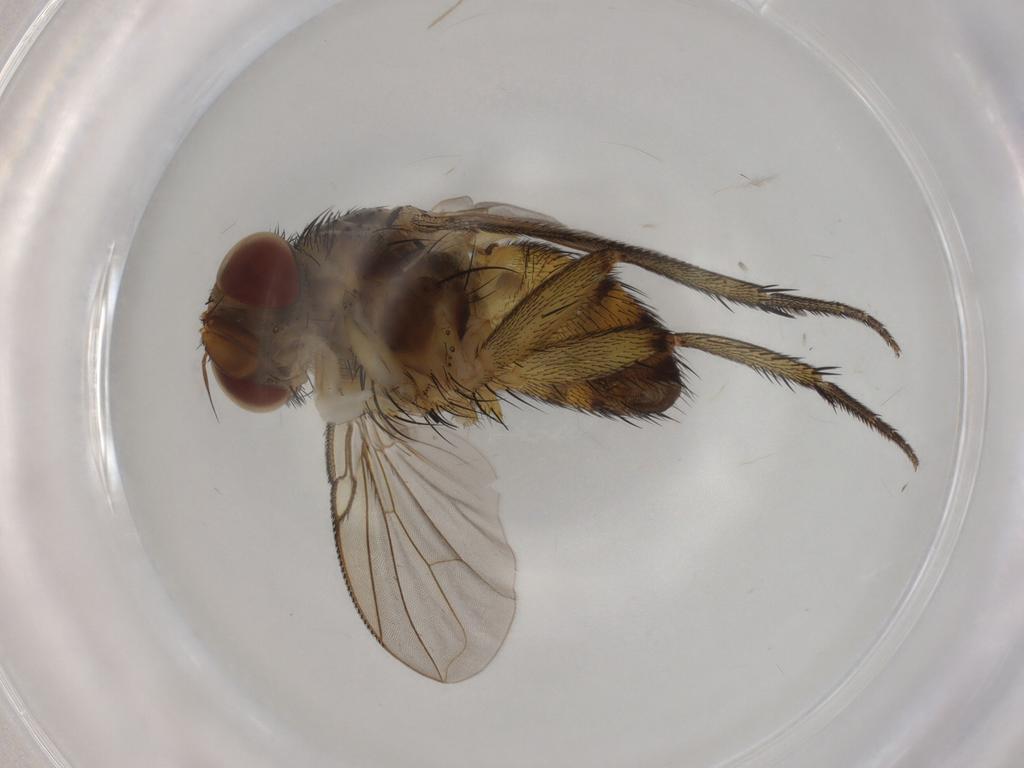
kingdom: Animalia
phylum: Arthropoda
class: Insecta
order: Diptera
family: Tachinidae
